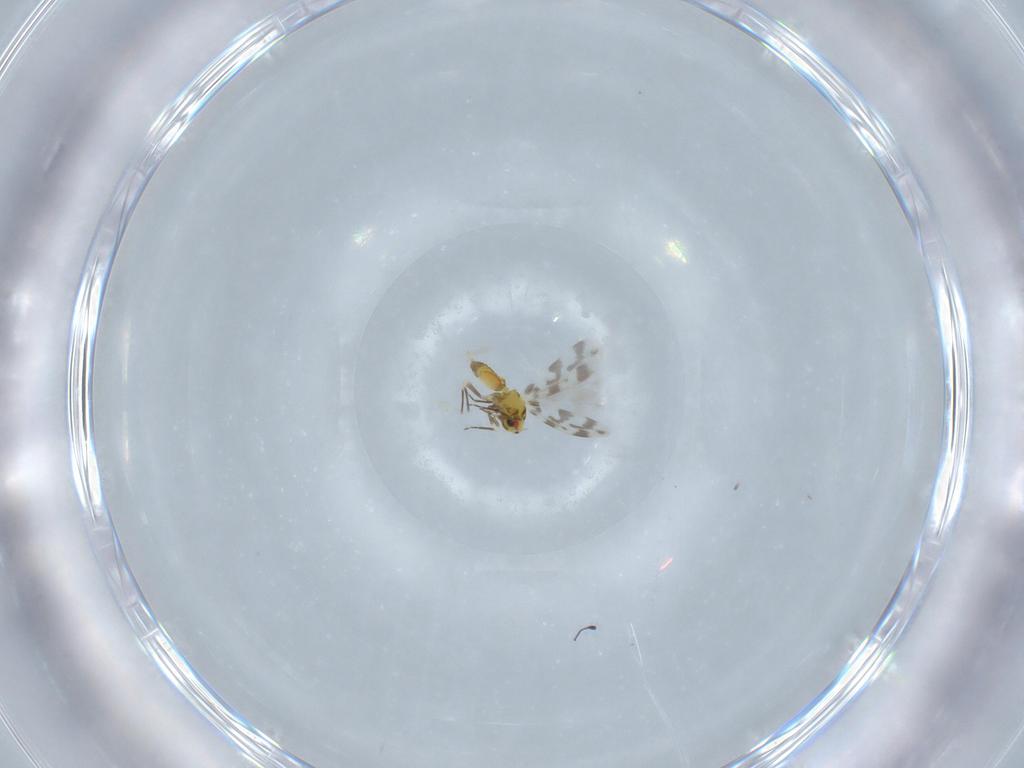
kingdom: Animalia
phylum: Arthropoda
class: Insecta
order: Hemiptera
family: Aleyrodidae
